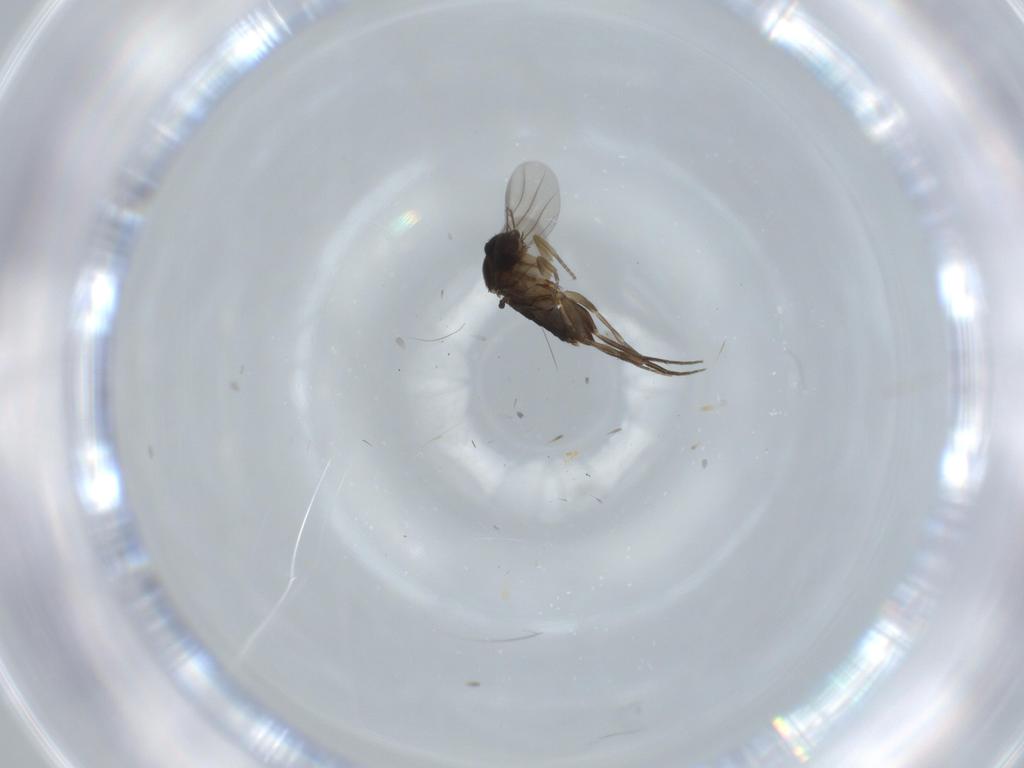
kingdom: Animalia
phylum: Arthropoda
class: Insecta
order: Diptera
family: Phoridae
